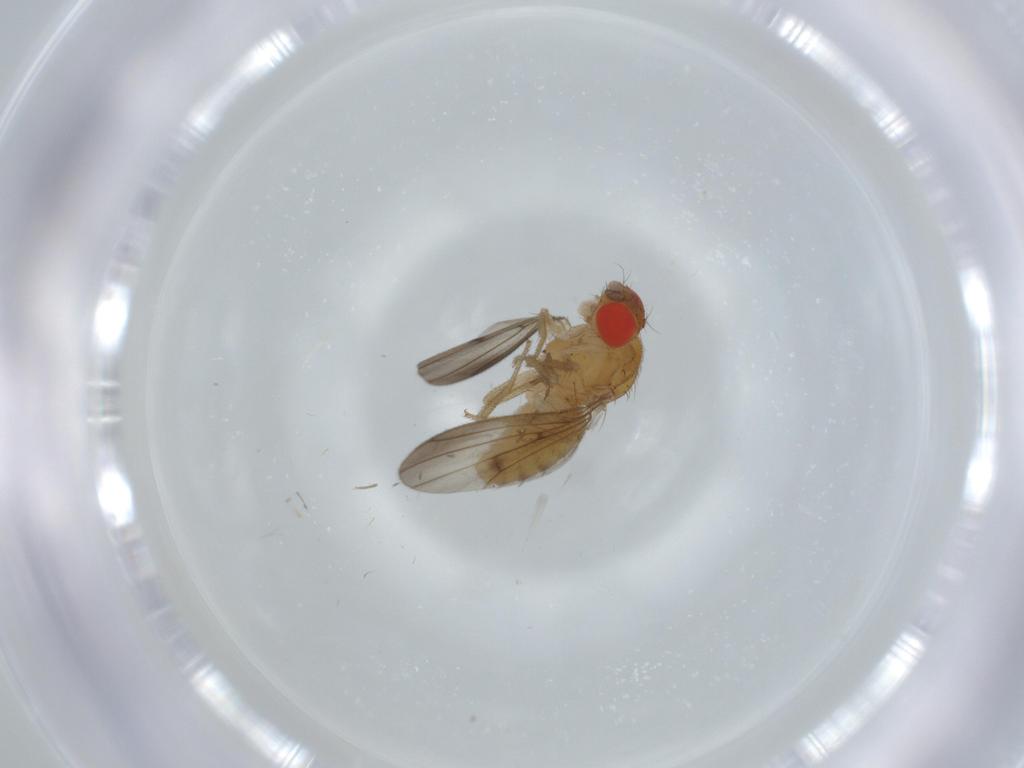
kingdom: Animalia
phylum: Arthropoda
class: Insecta
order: Diptera
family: Drosophilidae
